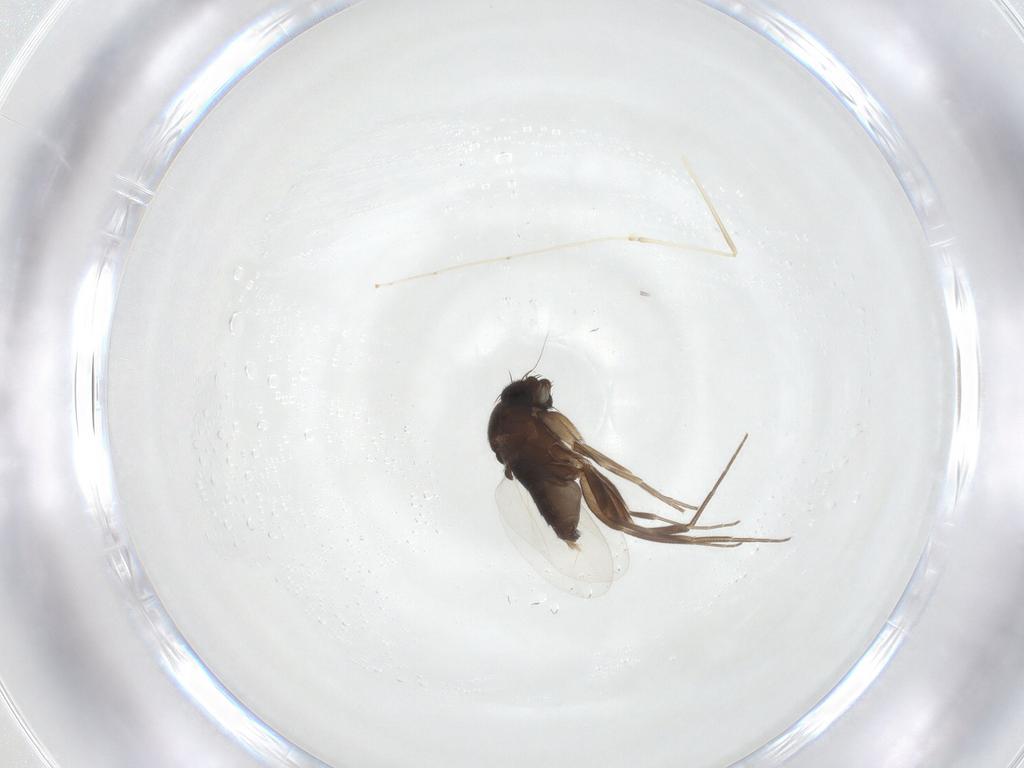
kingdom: Animalia
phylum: Arthropoda
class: Insecta
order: Diptera
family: Phoridae
